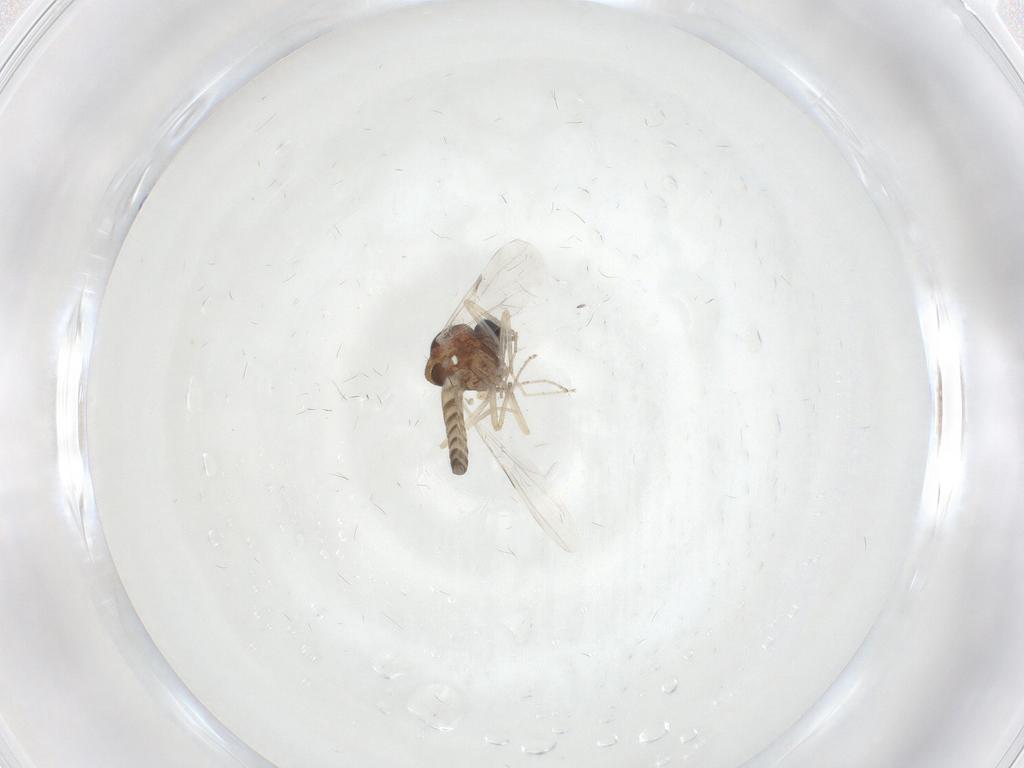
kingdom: Animalia
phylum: Arthropoda
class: Insecta
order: Diptera
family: Ceratopogonidae
